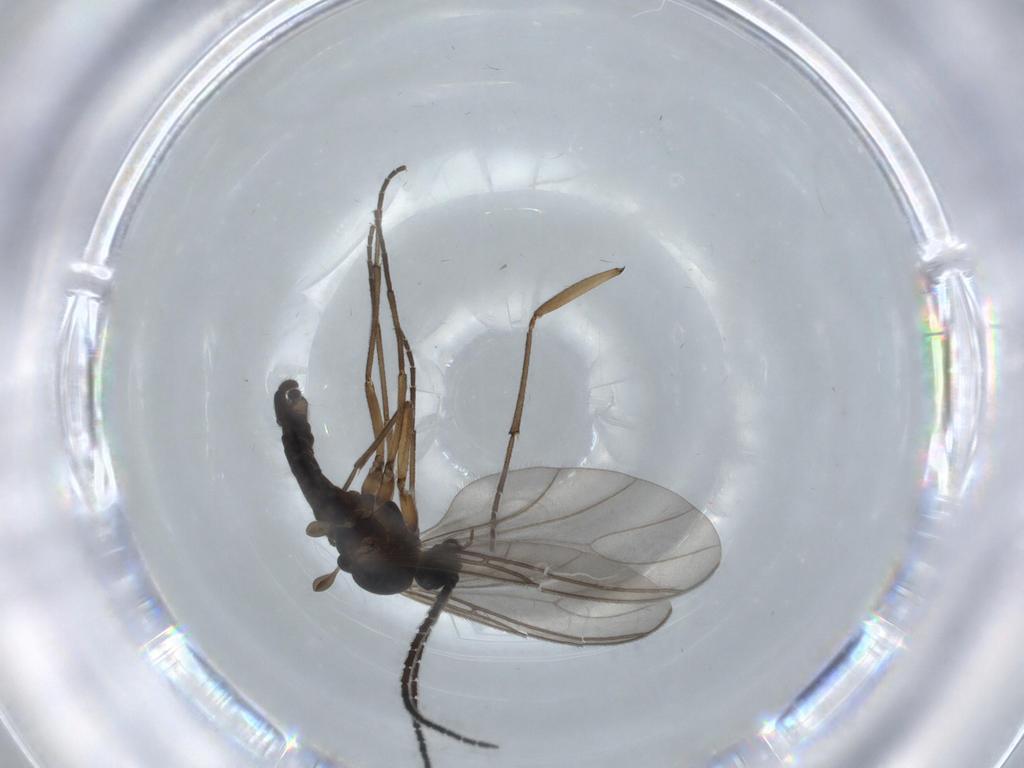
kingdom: Animalia
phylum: Arthropoda
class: Insecta
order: Diptera
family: Sciaridae
